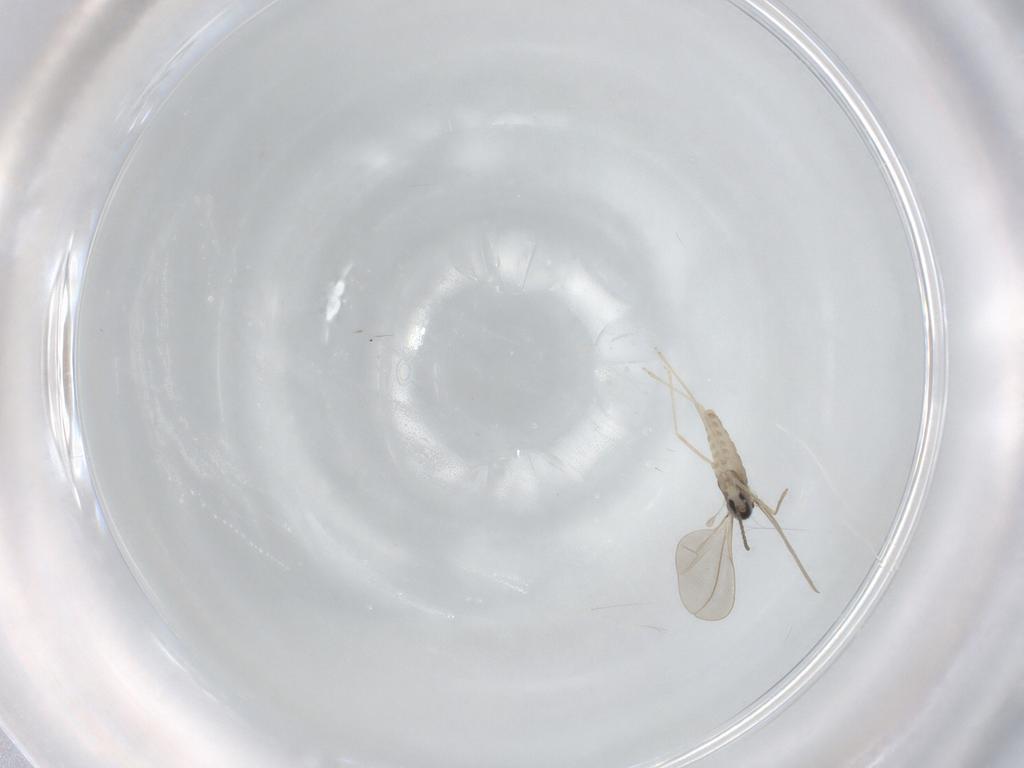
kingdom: Animalia
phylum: Arthropoda
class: Insecta
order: Diptera
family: Cecidomyiidae
